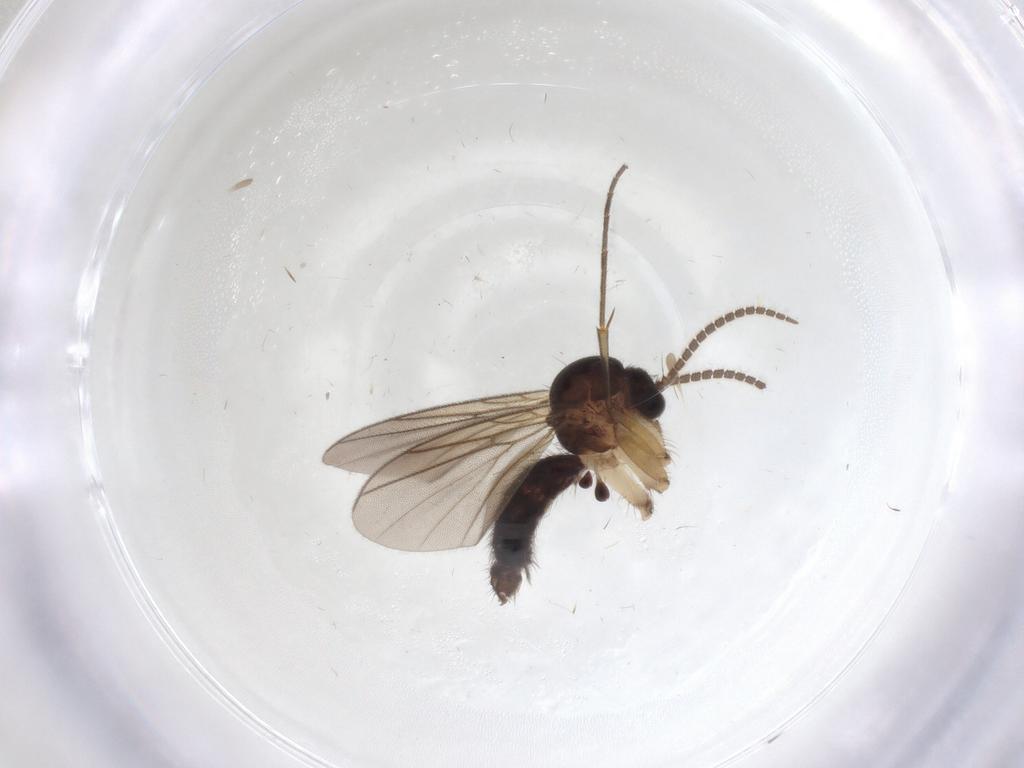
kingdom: Animalia
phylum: Arthropoda
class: Insecta
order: Diptera
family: Mycetophilidae
